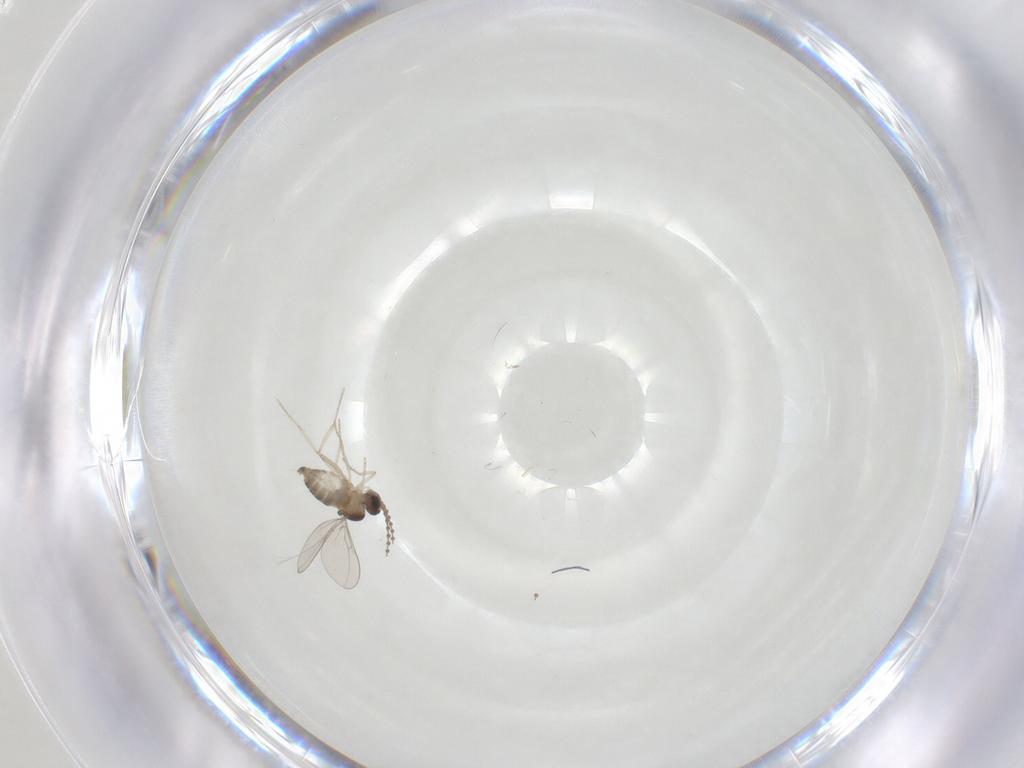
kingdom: Animalia
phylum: Arthropoda
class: Insecta
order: Diptera
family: Cecidomyiidae
